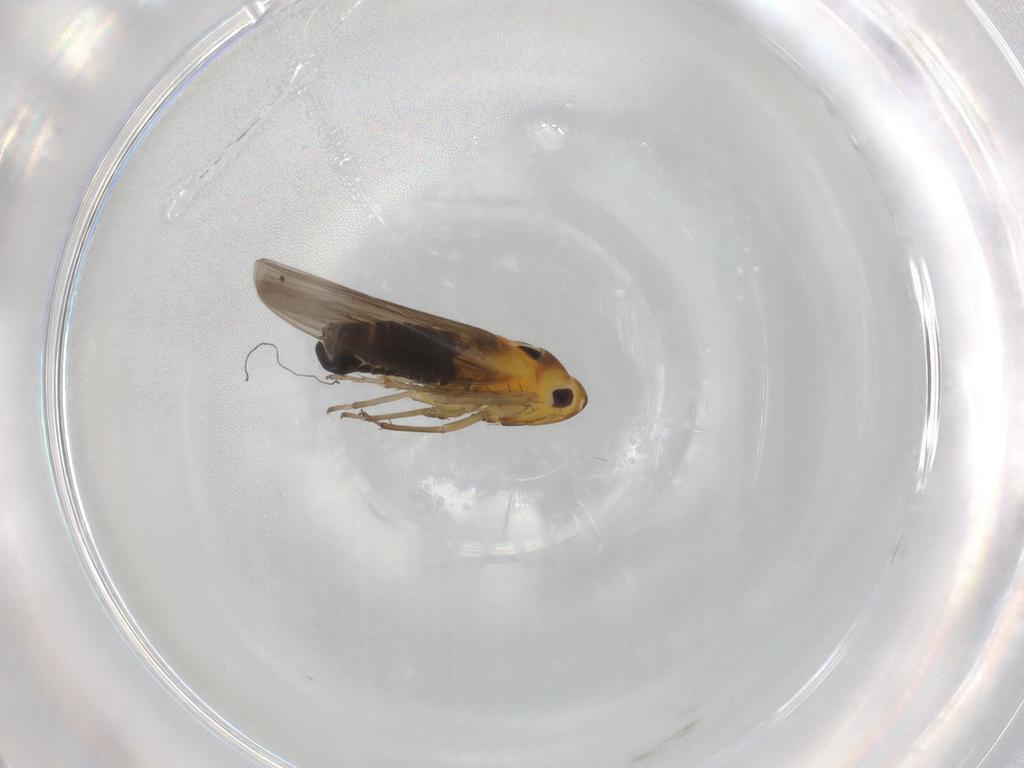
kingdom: Animalia
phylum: Arthropoda
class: Insecta
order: Hemiptera
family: Cicadellidae
